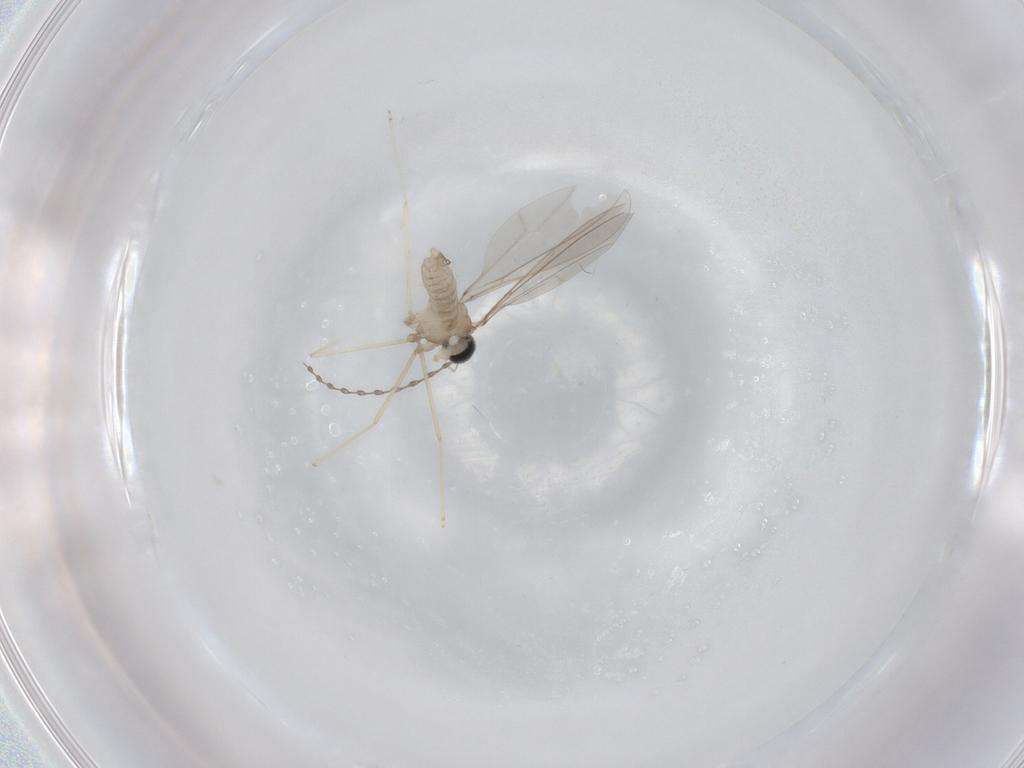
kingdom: Animalia
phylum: Arthropoda
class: Insecta
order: Diptera
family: Cecidomyiidae
